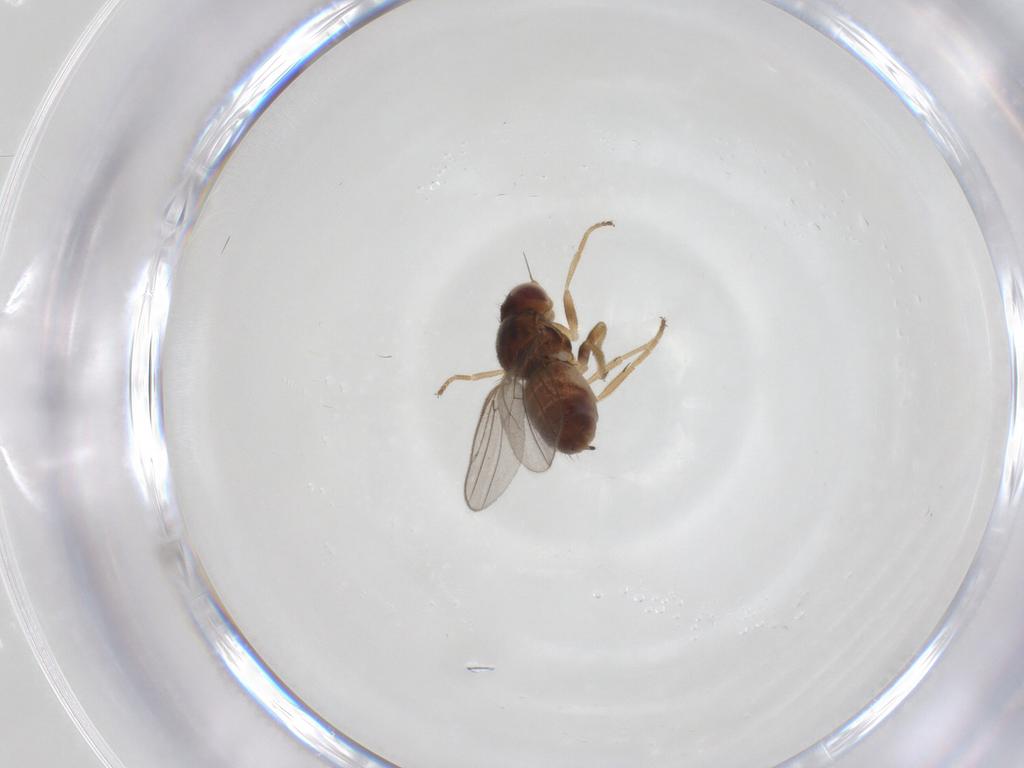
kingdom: Animalia
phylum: Arthropoda
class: Insecta
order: Diptera
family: Chloropidae
